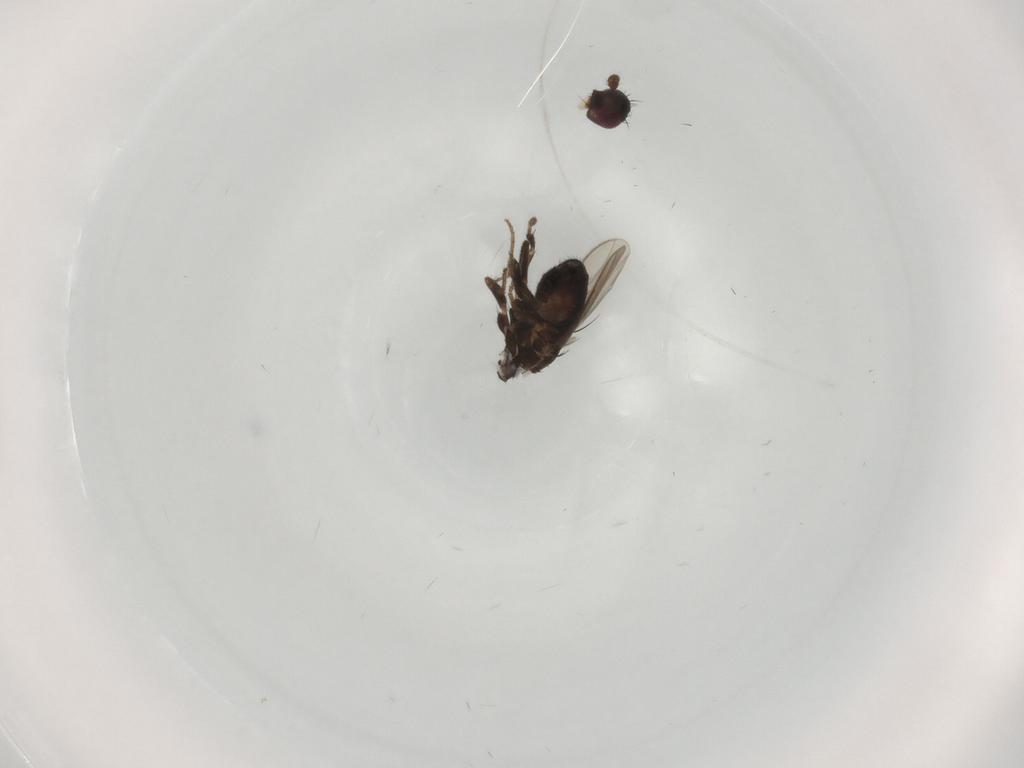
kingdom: Animalia
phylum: Arthropoda
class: Insecta
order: Diptera
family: Sphaeroceridae
